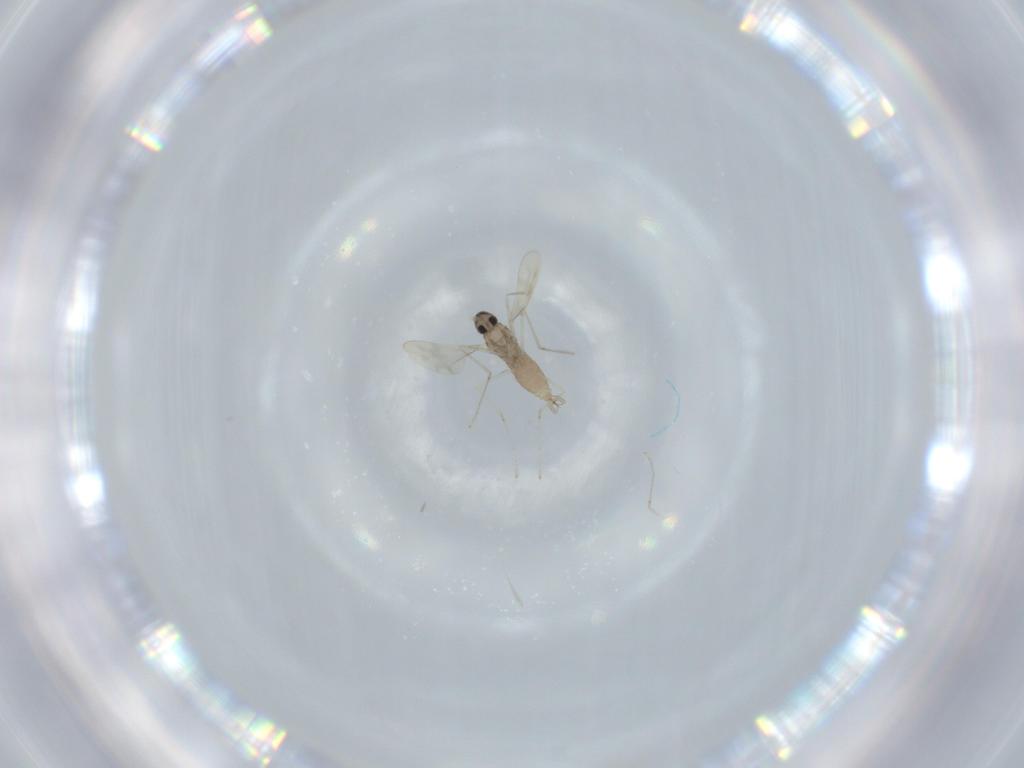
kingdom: Animalia
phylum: Arthropoda
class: Insecta
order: Diptera
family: Cecidomyiidae
